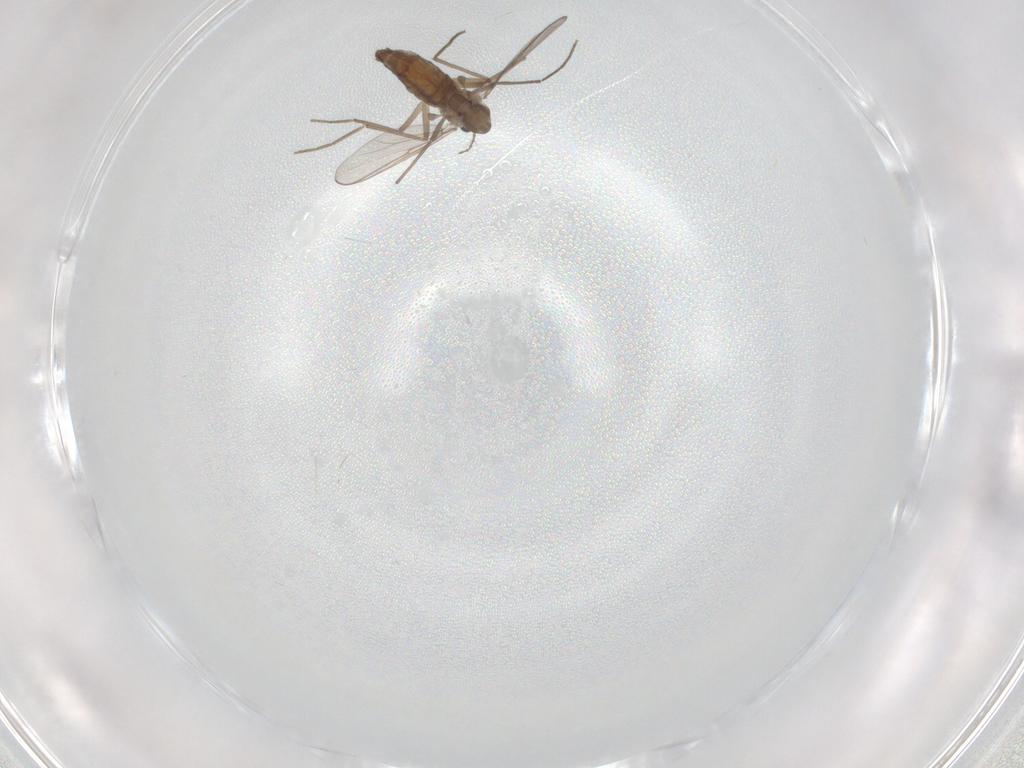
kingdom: Animalia
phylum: Arthropoda
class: Insecta
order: Diptera
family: Chironomidae
